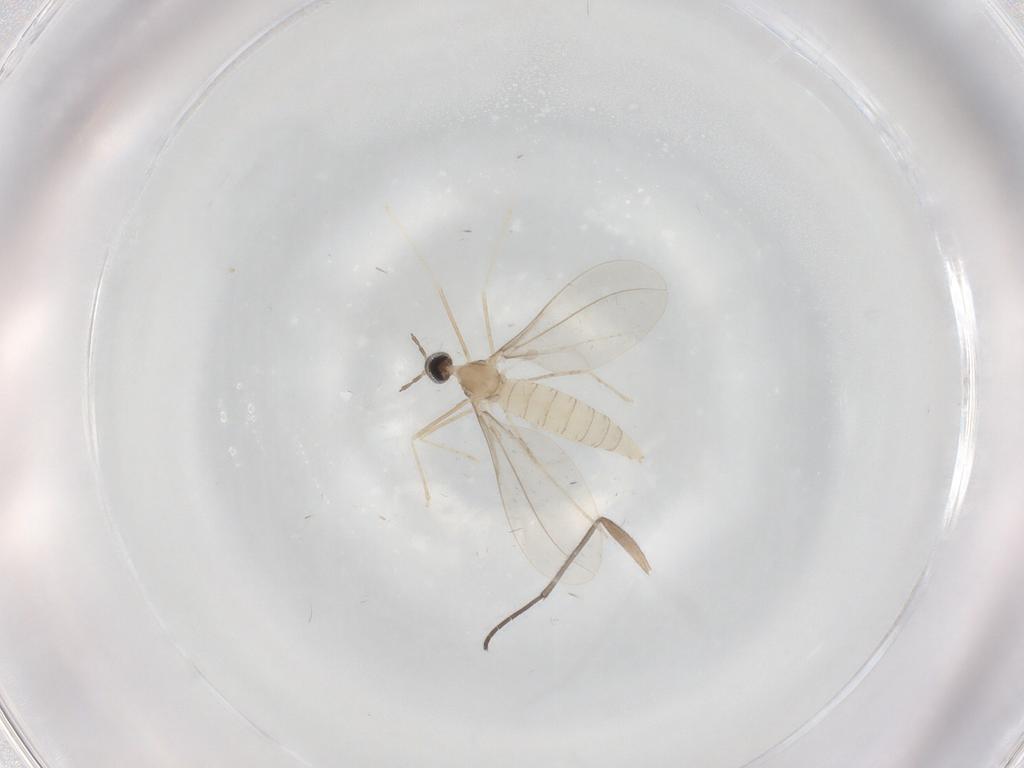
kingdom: Animalia
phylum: Arthropoda
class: Insecta
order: Diptera
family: Cecidomyiidae
